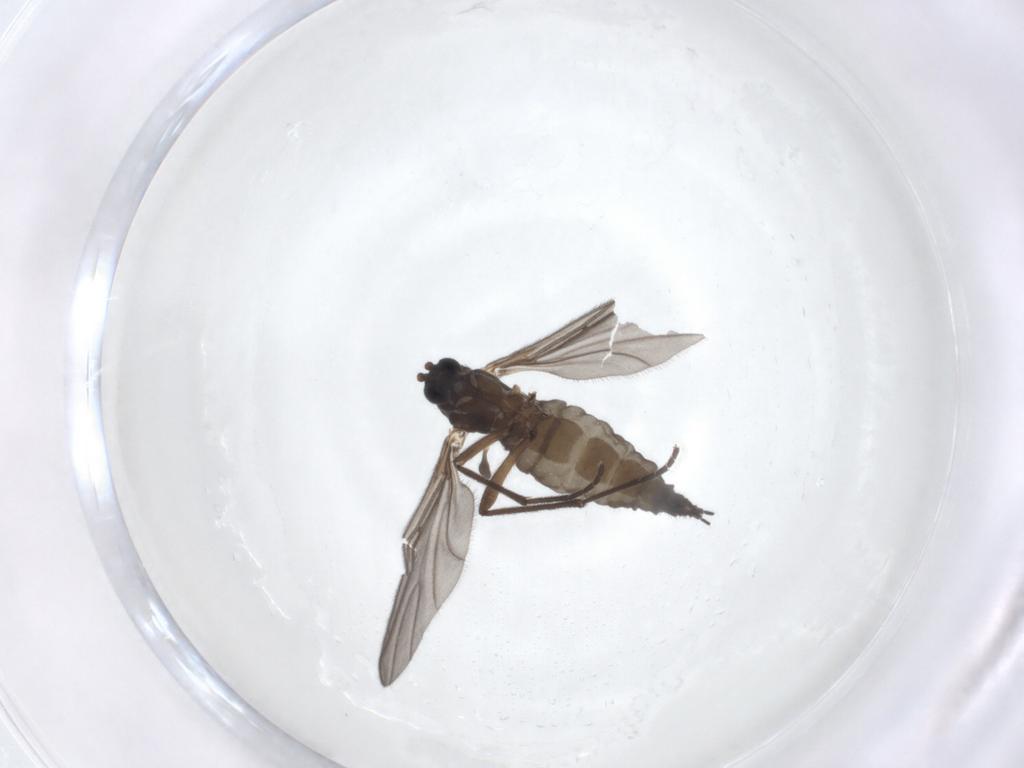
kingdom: Animalia
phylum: Arthropoda
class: Insecta
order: Diptera
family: Sciaridae
